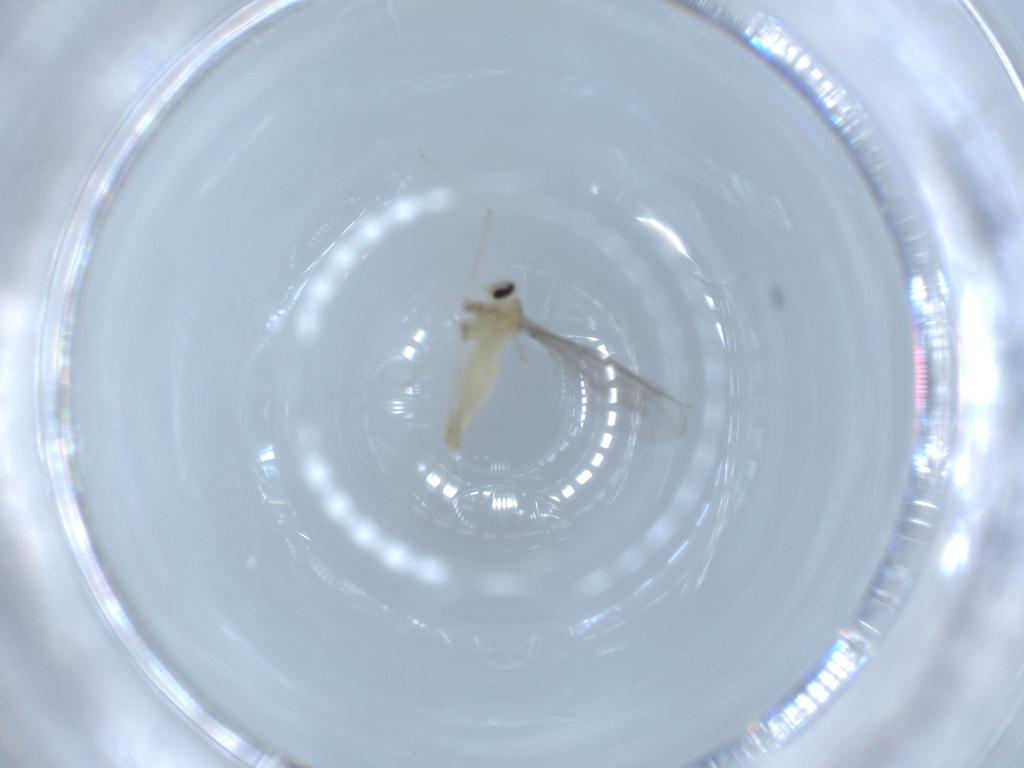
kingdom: Animalia
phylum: Arthropoda
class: Insecta
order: Diptera
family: Cecidomyiidae
